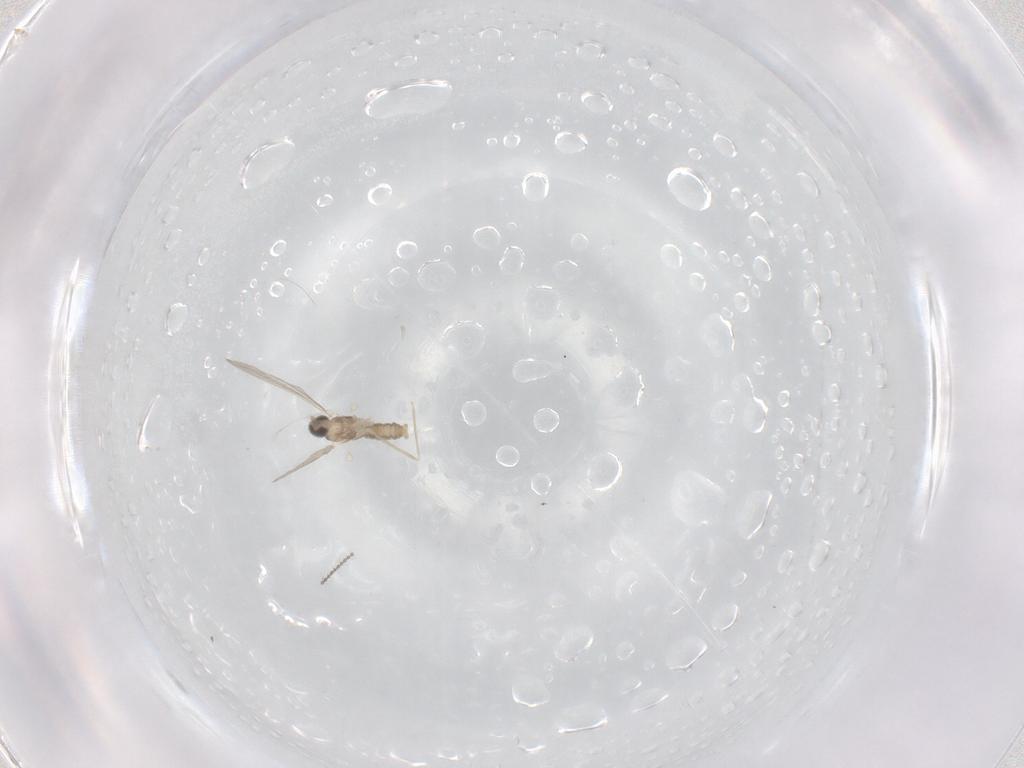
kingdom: Animalia
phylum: Arthropoda
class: Insecta
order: Diptera
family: Cecidomyiidae
